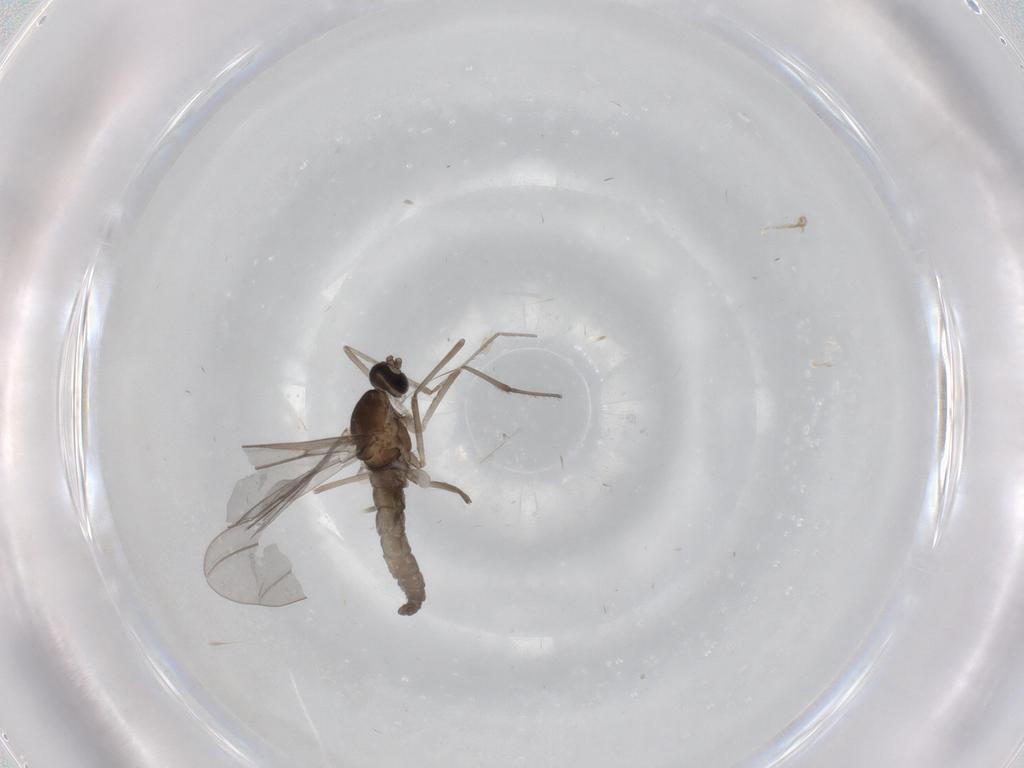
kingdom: Animalia
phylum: Arthropoda
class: Insecta
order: Diptera
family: Cecidomyiidae
